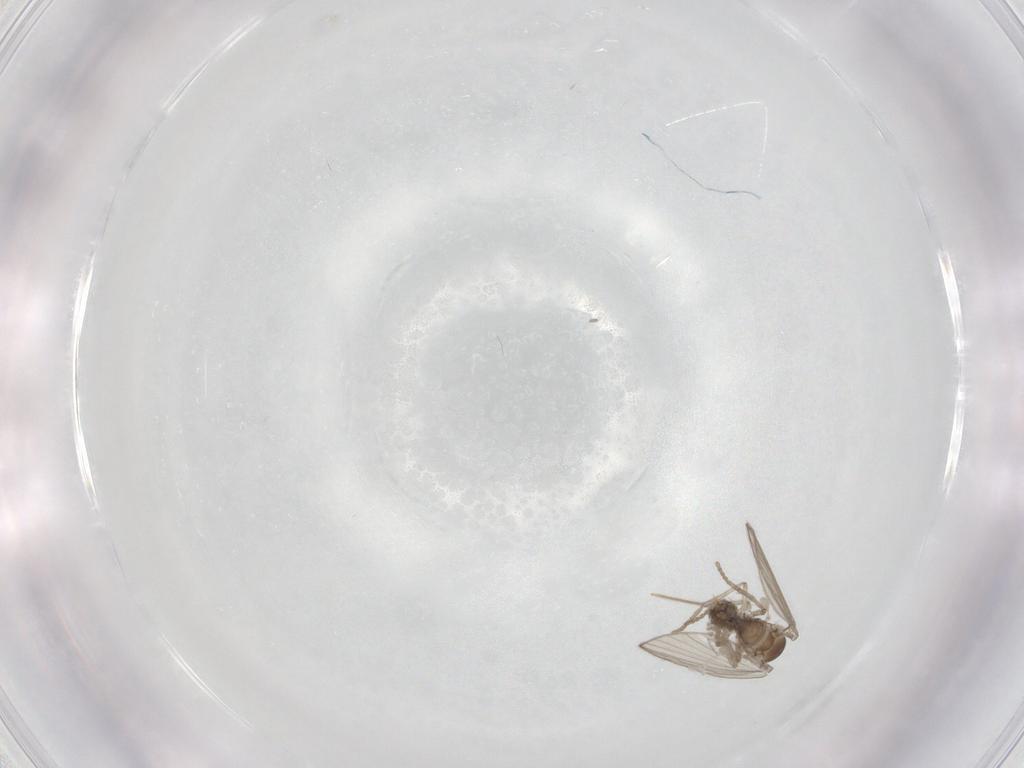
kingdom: Animalia
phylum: Arthropoda
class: Insecta
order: Diptera
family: Psychodidae
